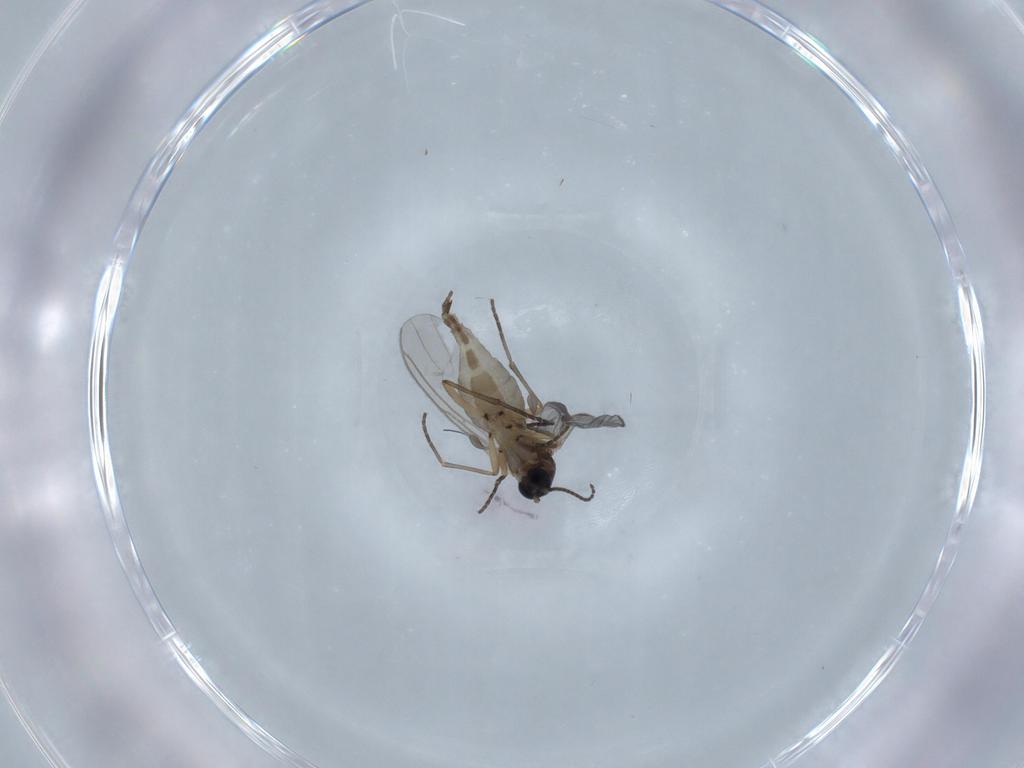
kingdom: Animalia
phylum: Arthropoda
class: Insecta
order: Diptera
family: Sciaridae
